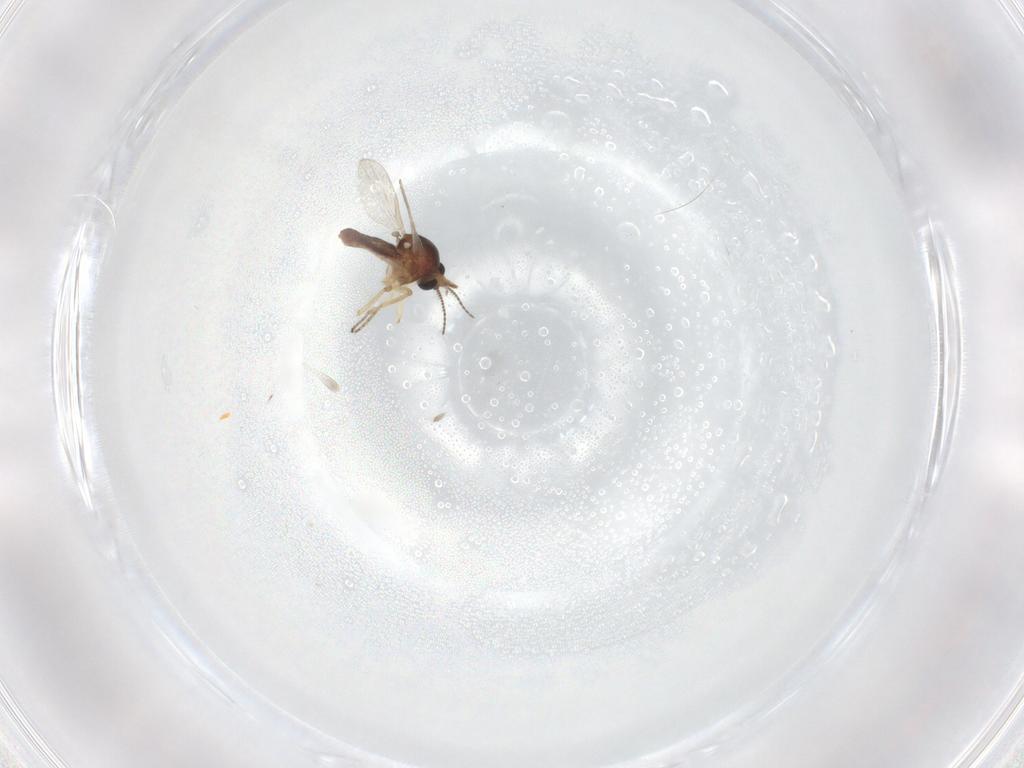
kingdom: Animalia
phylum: Arthropoda
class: Insecta
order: Diptera
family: Ceratopogonidae
